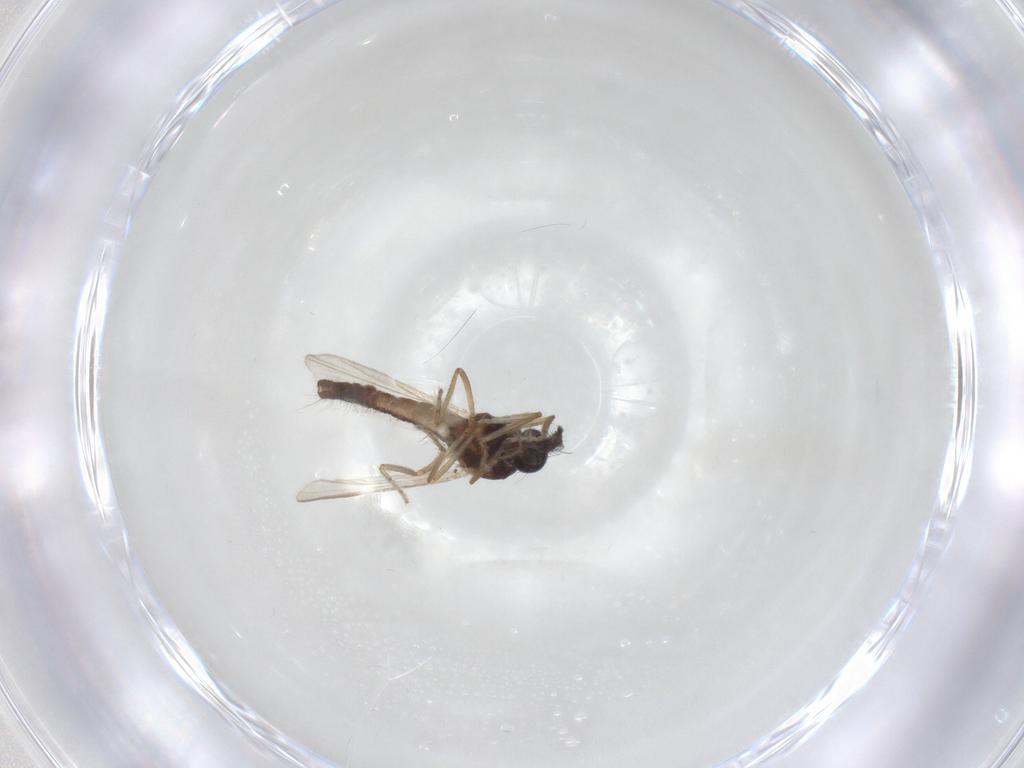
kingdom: Animalia
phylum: Arthropoda
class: Insecta
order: Diptera
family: Ceratopogonidae
